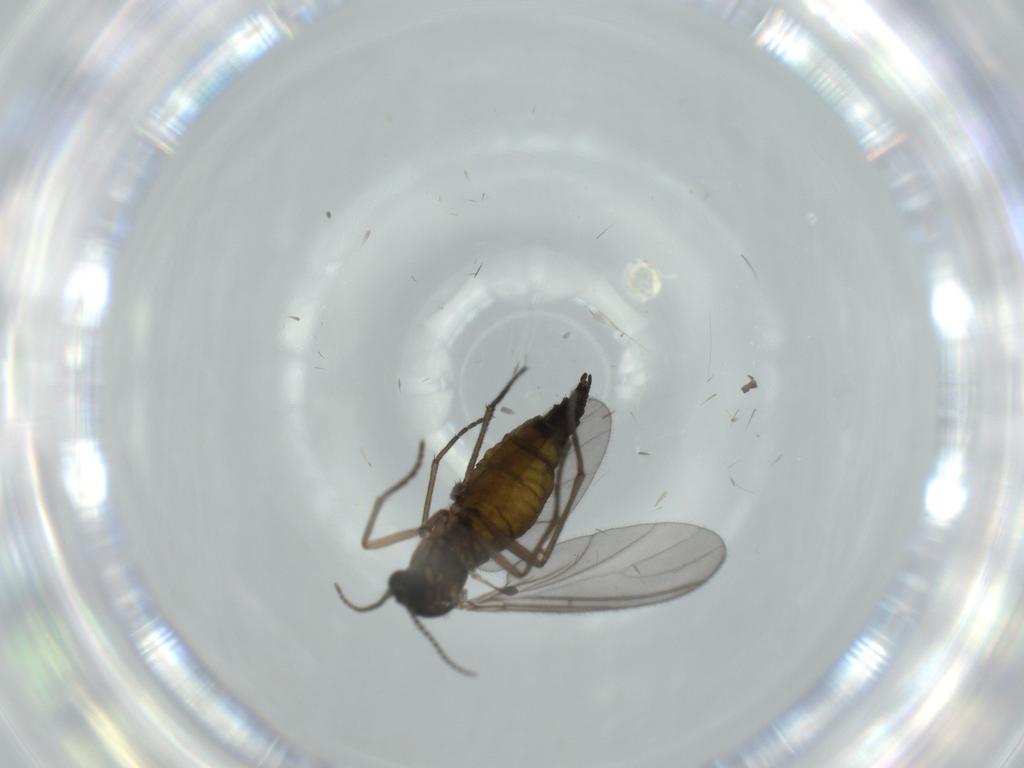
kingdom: Animalia
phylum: Arthropoda
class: Insecta
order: Diptera
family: Sciaridae
